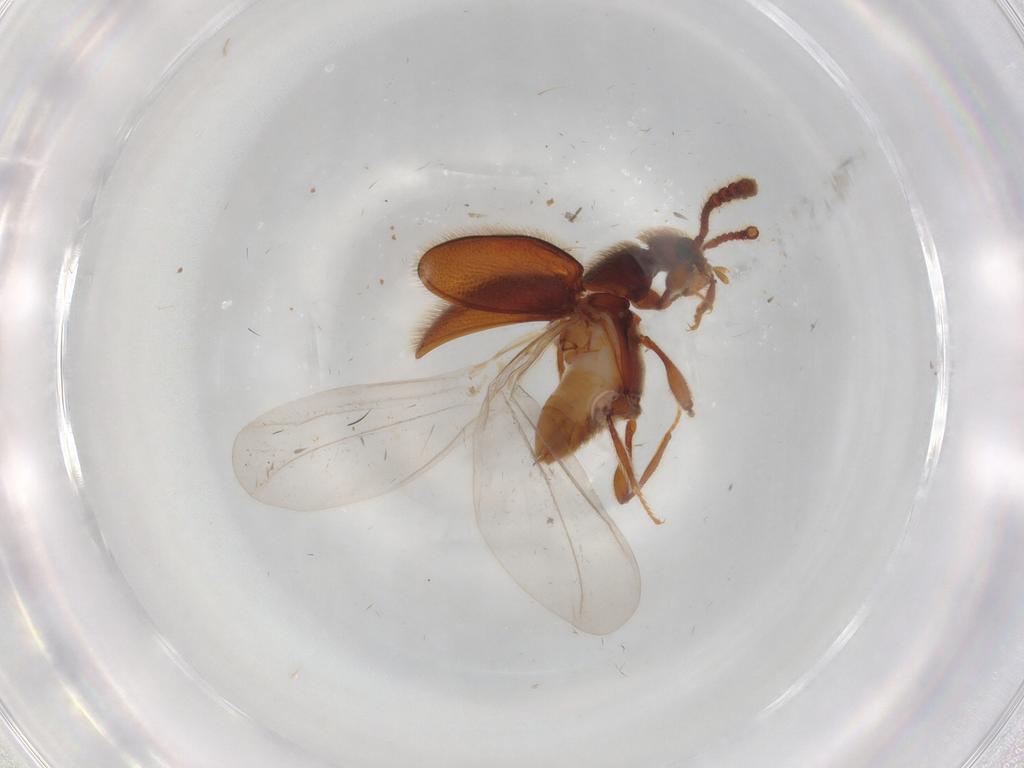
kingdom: Animalia
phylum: Arthropoda
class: Insecta
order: Coleoptera
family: Staphylinidae
